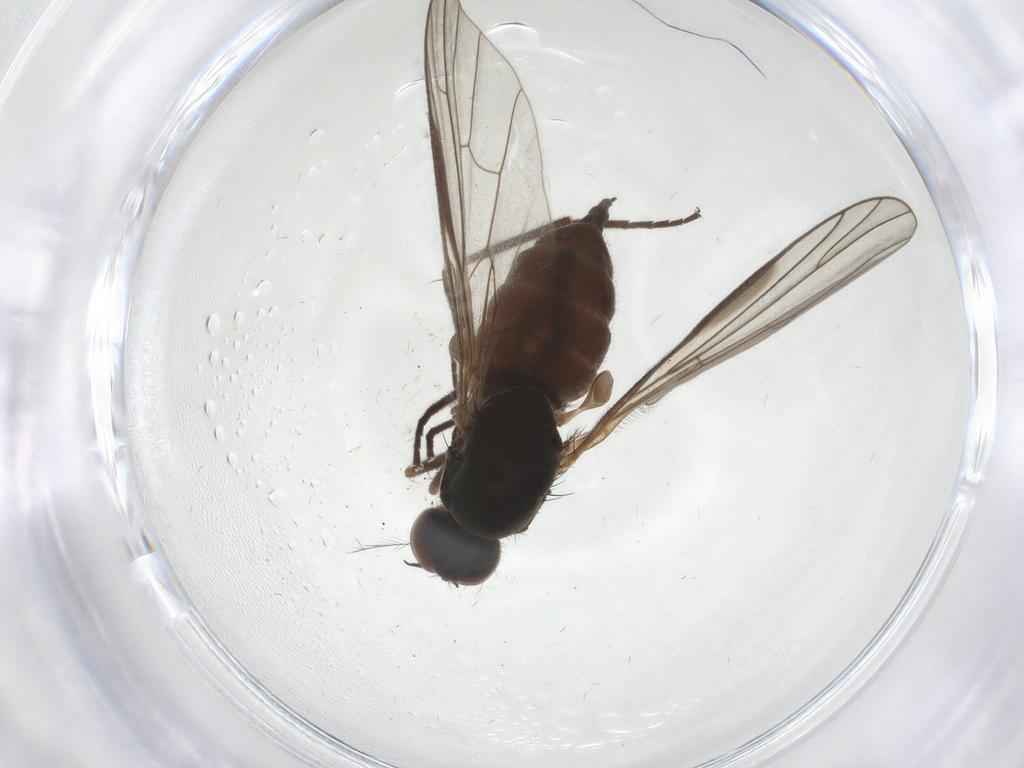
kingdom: Animalia
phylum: Arthropoda
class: Insecta
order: Diptera
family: Empididae
